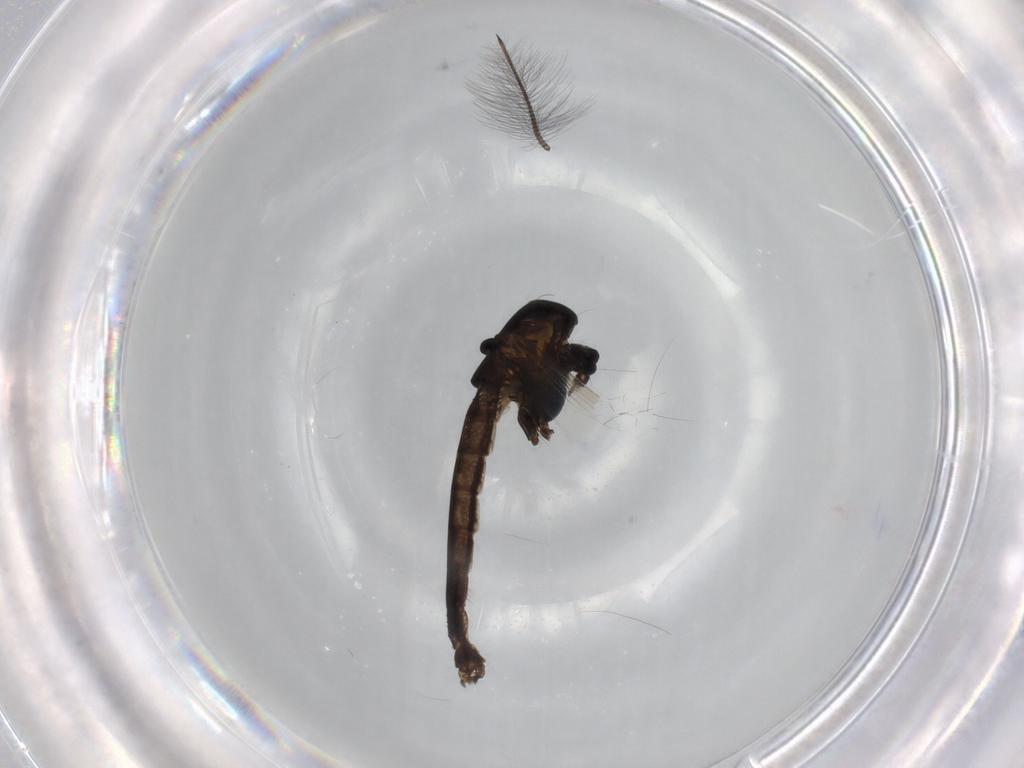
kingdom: Animalia
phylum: Arthropoda
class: Insecta
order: Diptera
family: Chironomidae
